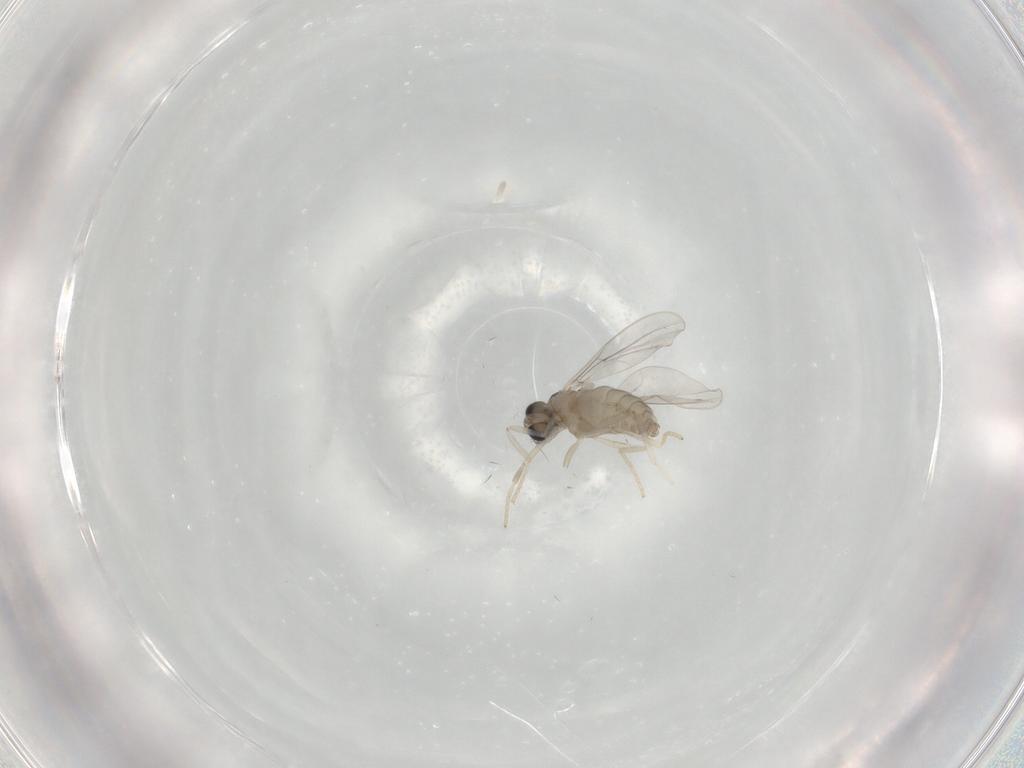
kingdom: Animalia
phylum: Arthropoda
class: Insecta
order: Diptera
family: Cecidomyiidae
